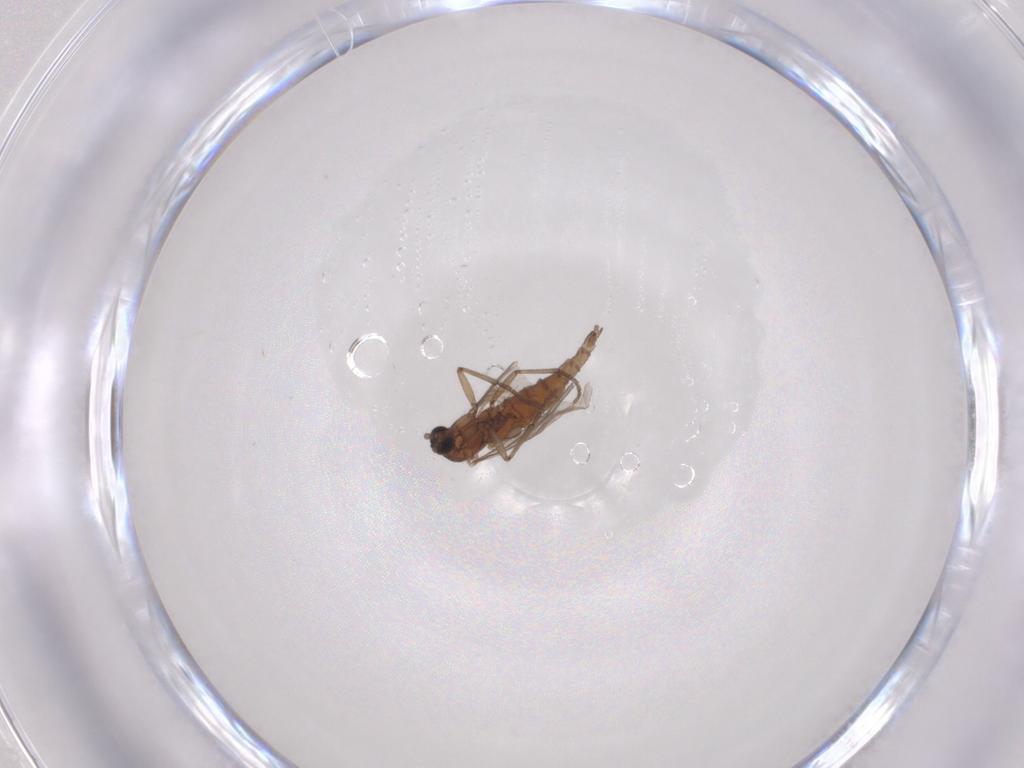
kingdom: Animalia
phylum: Arthropoda
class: Insecta
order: Diptera
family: Sciaridae
